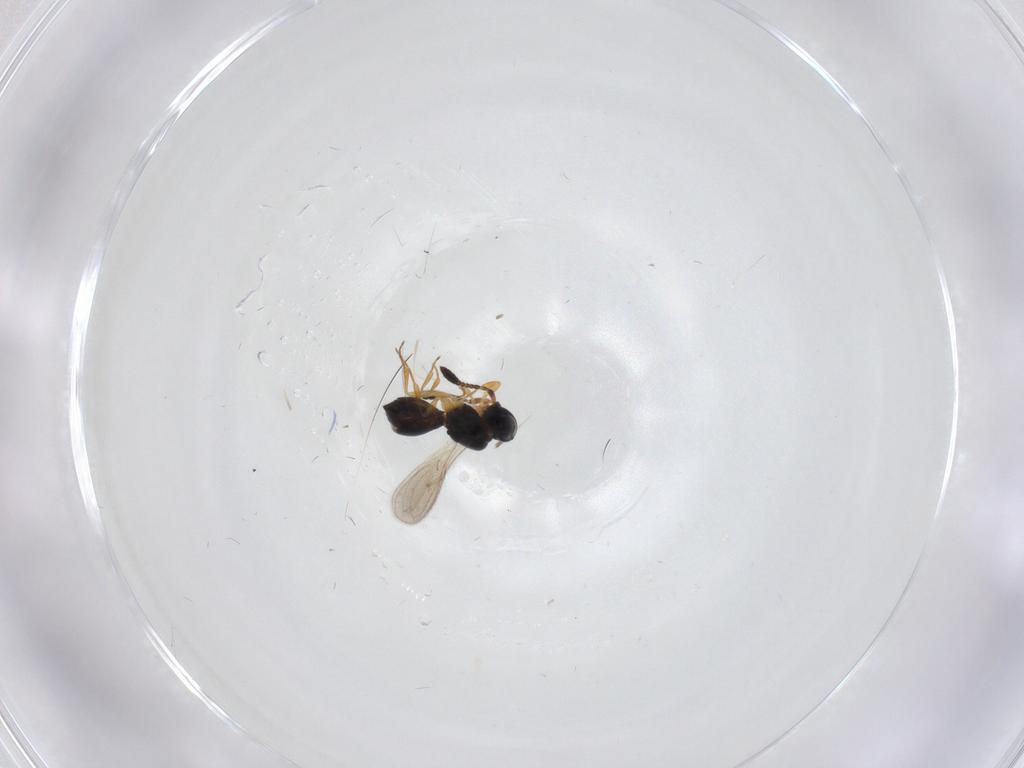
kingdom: Animalia
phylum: Arthropoda
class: Insecta
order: Hymenoptera
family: Scelionidae
